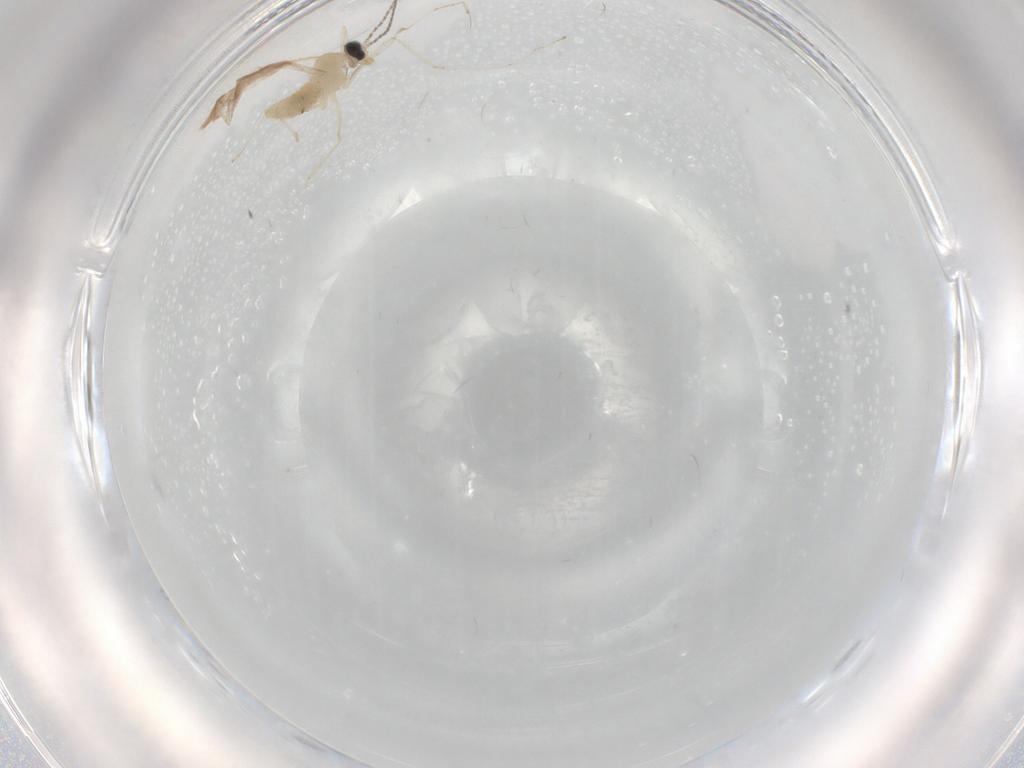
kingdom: Animalia
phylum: Arthropoda
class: Insecta
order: Diptera
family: Cecidomyiidae
